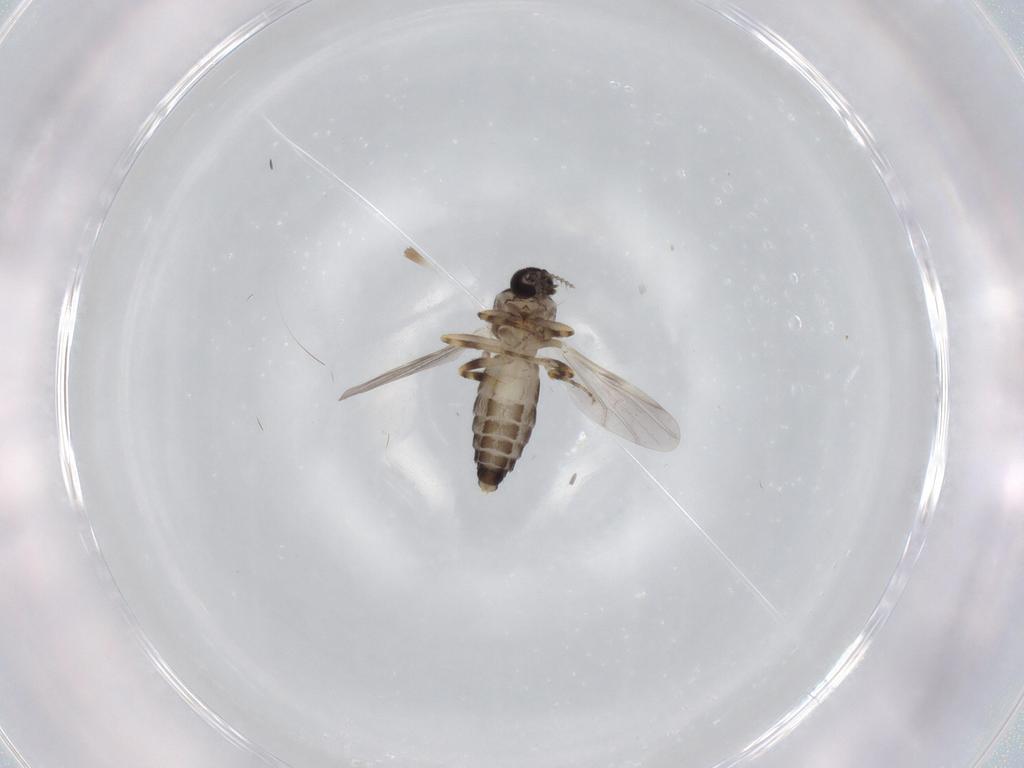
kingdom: Animalia
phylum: Arthropoda
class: Insecta
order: Diptera
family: Ceratopogonidae
